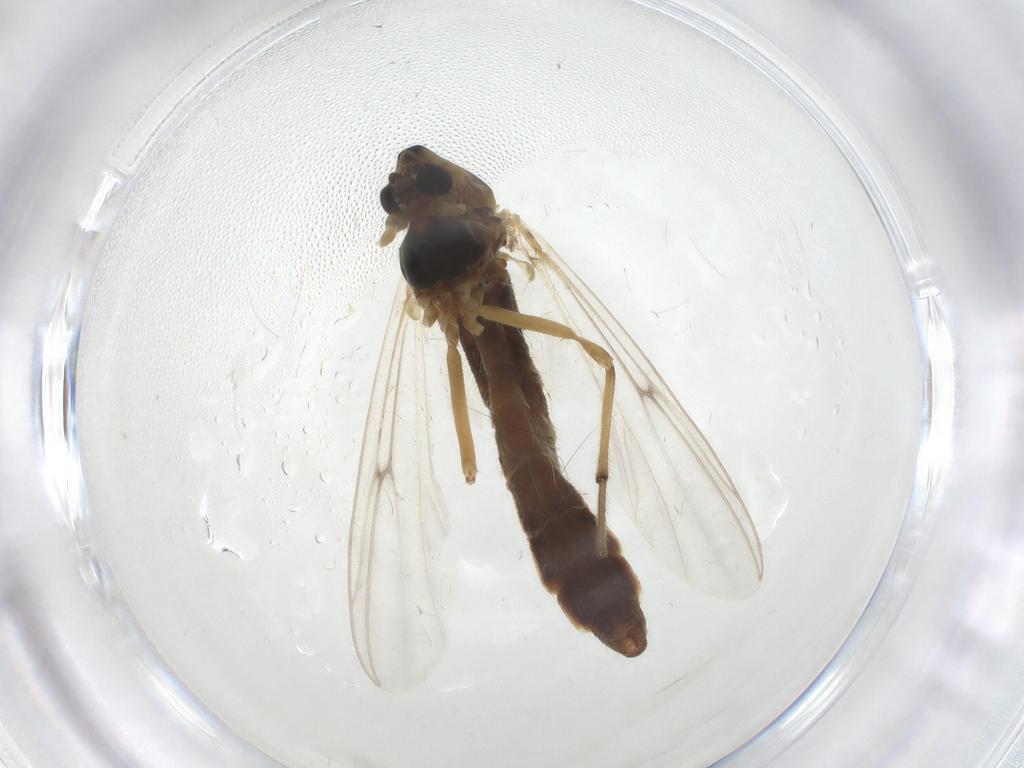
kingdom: Animalia
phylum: Arthropoda
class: Insecta
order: Diptera
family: Chironomidae
